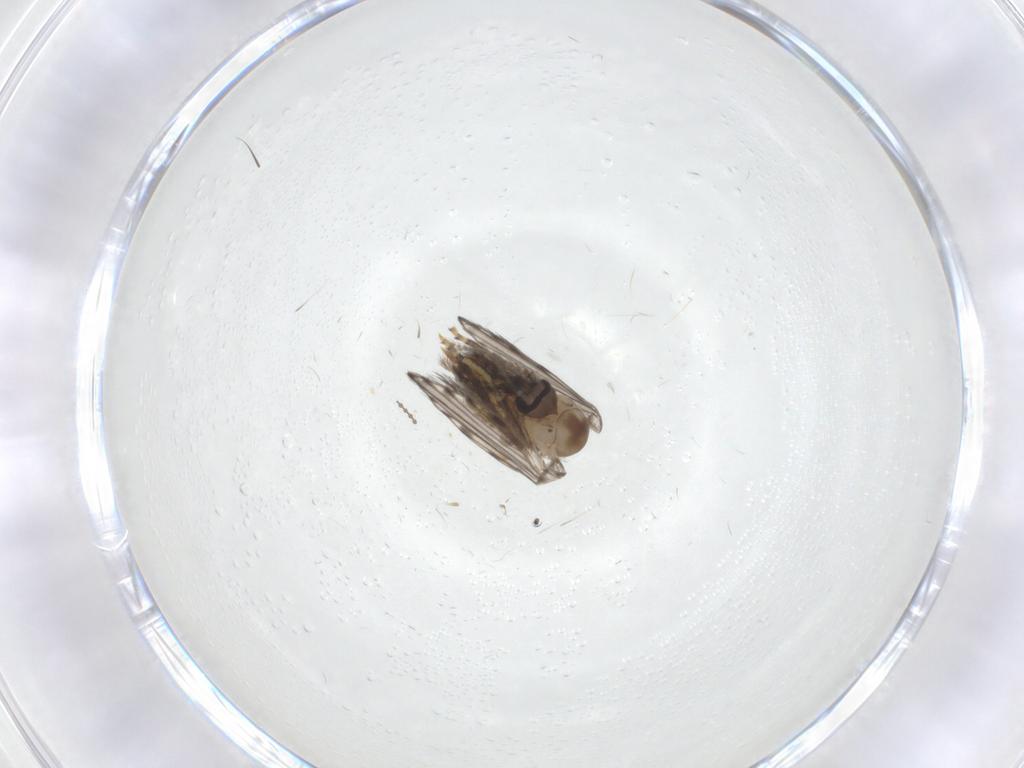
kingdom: Animalia
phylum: Arthropoda
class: Insecta
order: Diptera
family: Psychodidae
